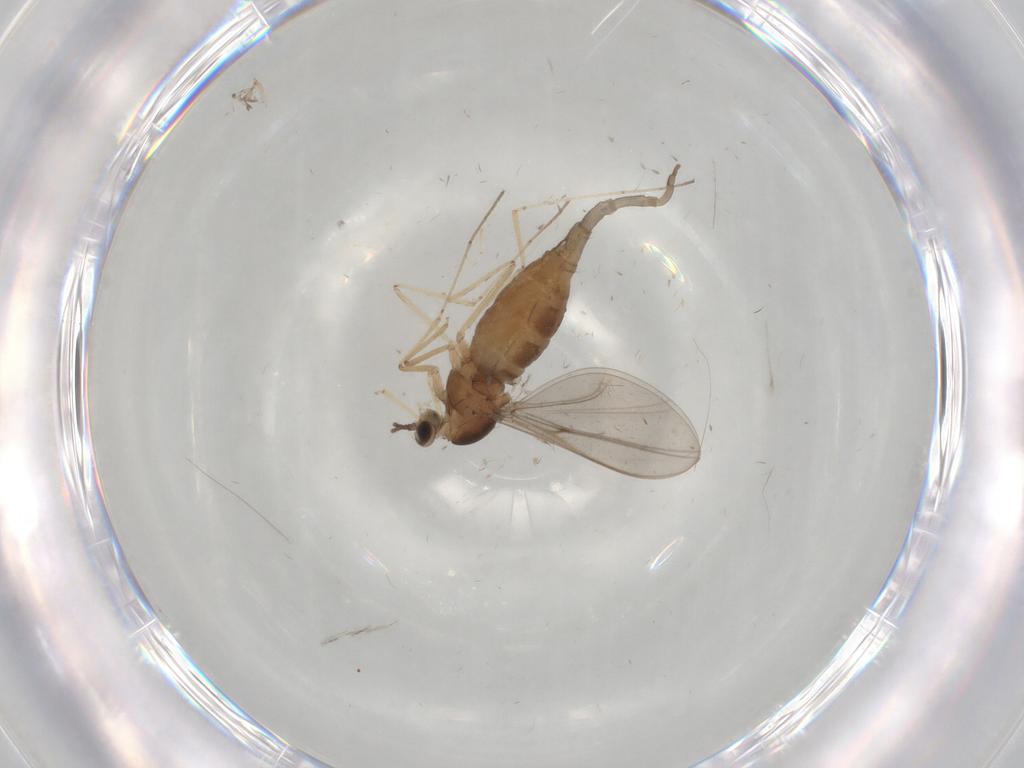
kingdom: Animalia
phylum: Arthropoda
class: Insecta
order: Diptera
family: Cecidomyiidae
